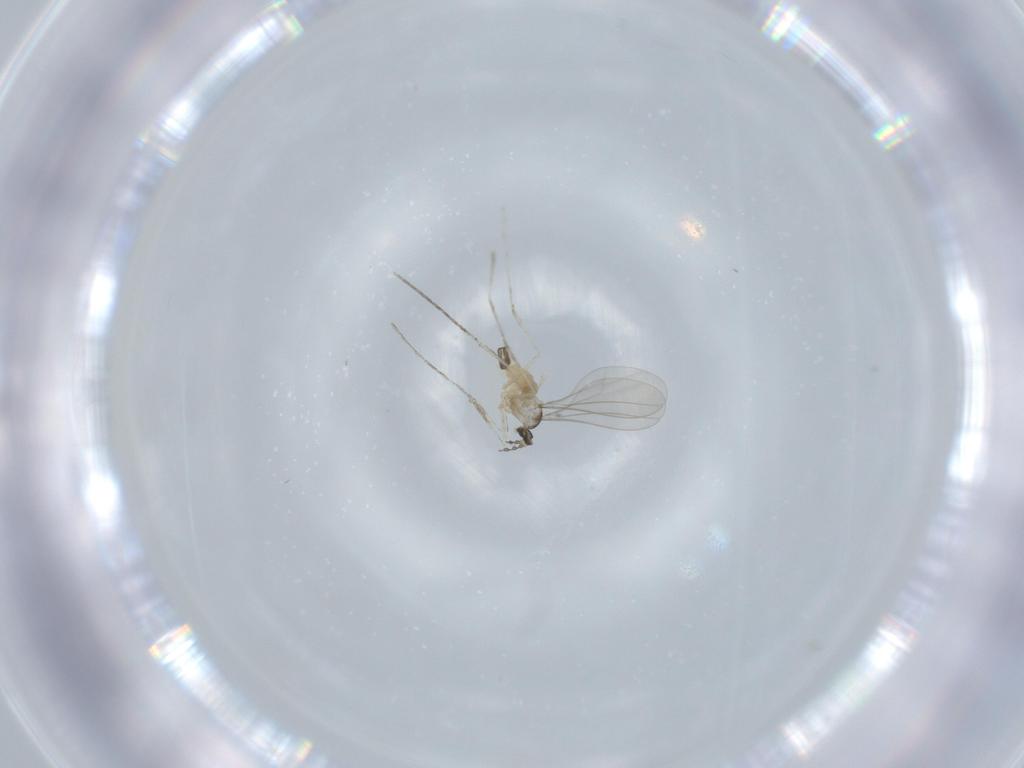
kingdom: Animalia
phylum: Arthropoda
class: Insecta
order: Diptera
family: Cecidomyiidae
